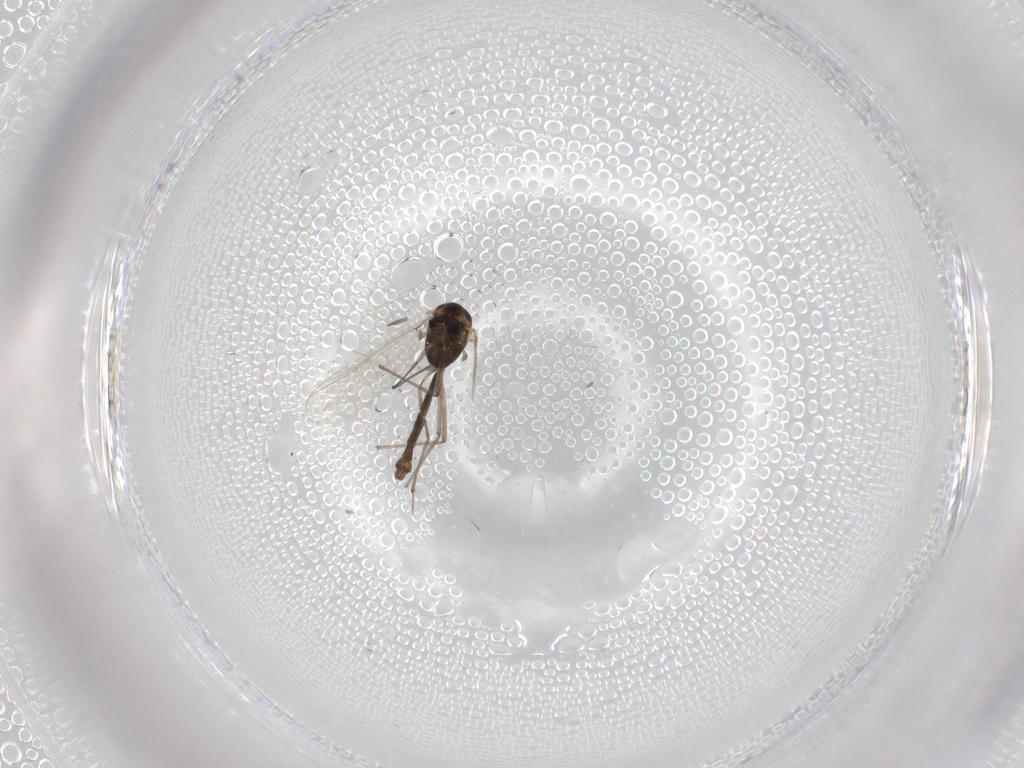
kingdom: Animalia
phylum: Arthropoda
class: Insecta
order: Diptera
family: Chironomidae
